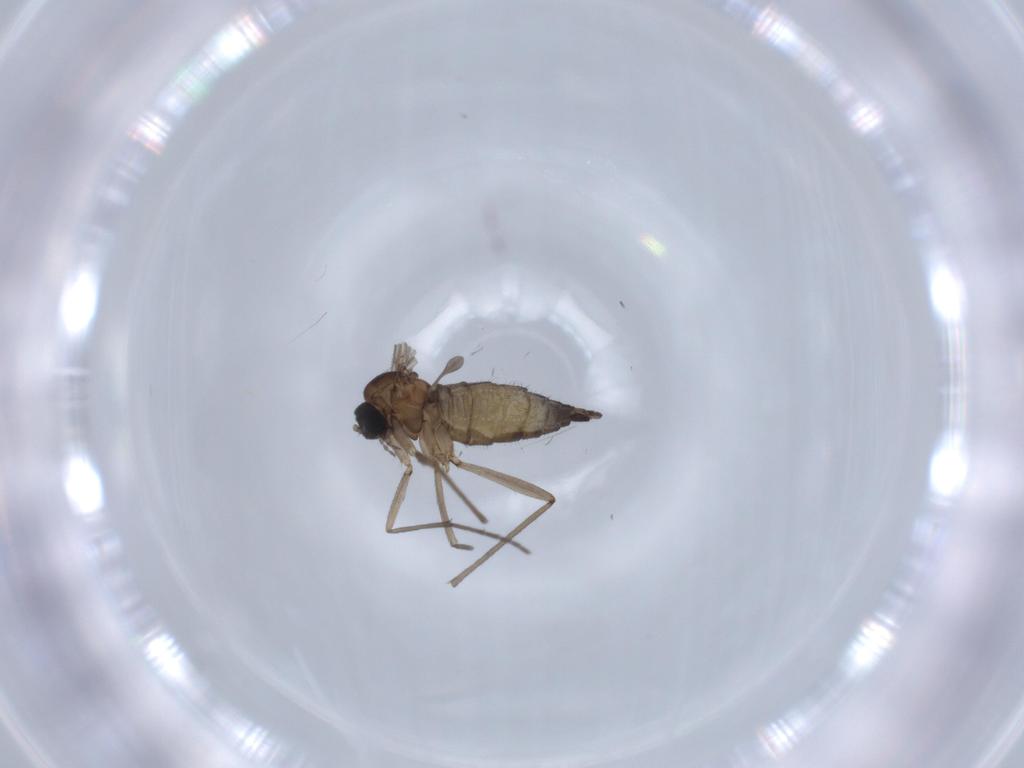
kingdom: Animalia
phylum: Arthropoda
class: Insecta
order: Diptera
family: Sciaridae
